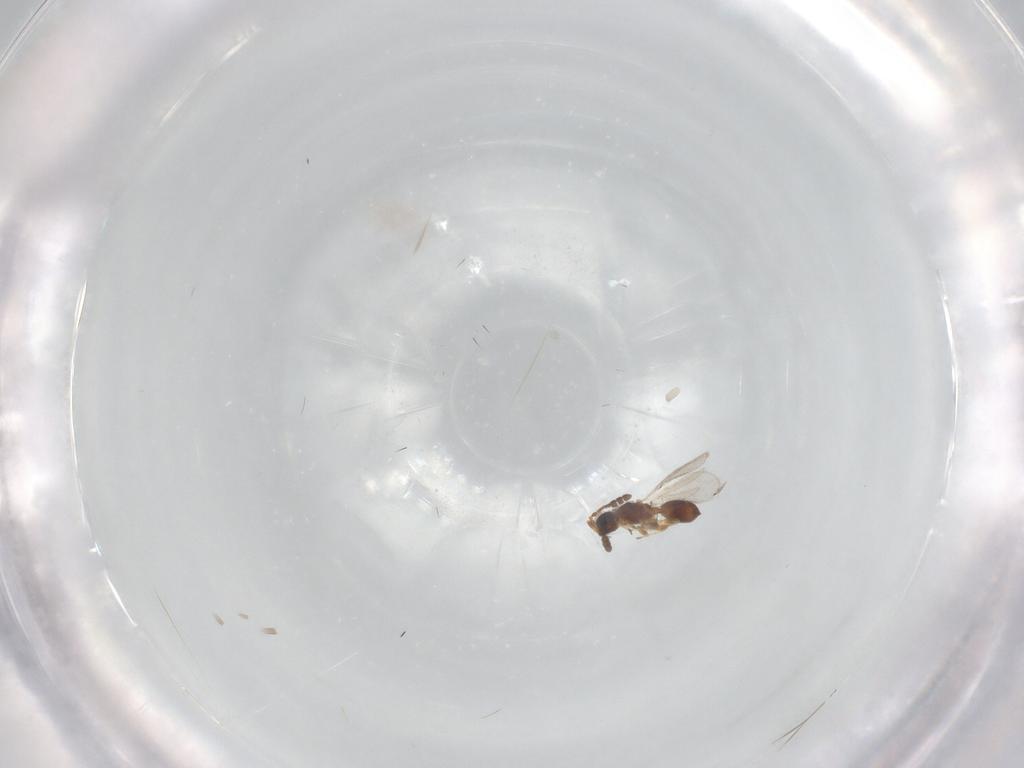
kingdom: Animalia
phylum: Arthropoda
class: Insecta
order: Hymenoptera
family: Diapriidae
